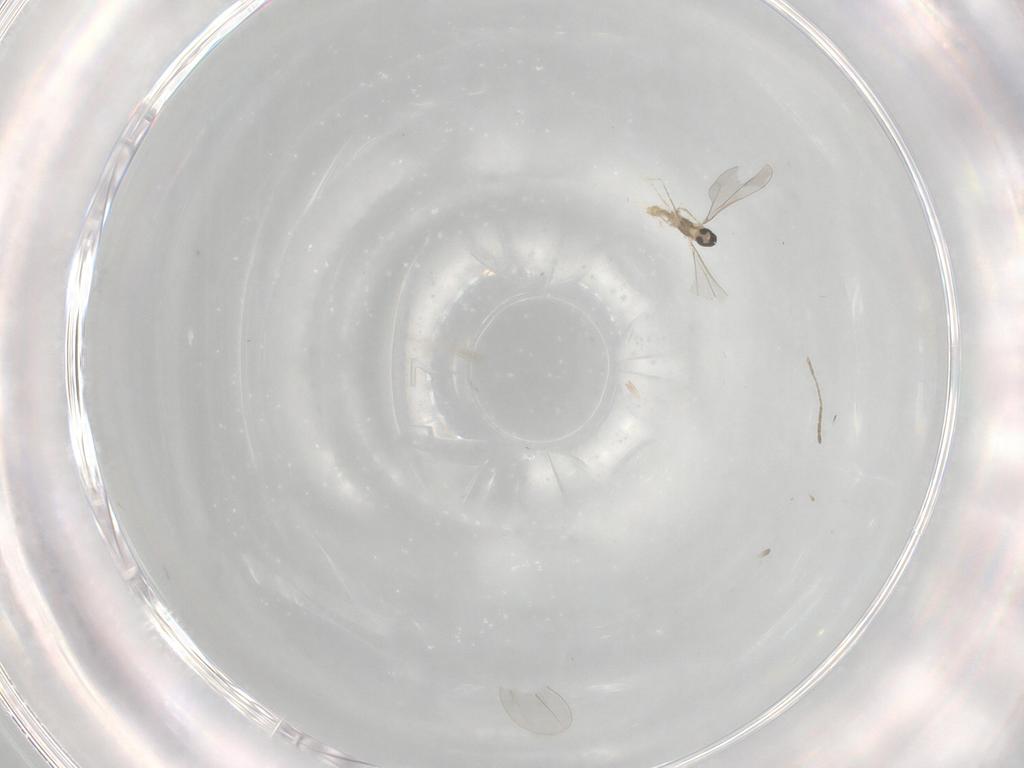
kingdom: Animalia
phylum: Arthropoda
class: Insecta
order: Diptera
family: Cecidomyiidae
